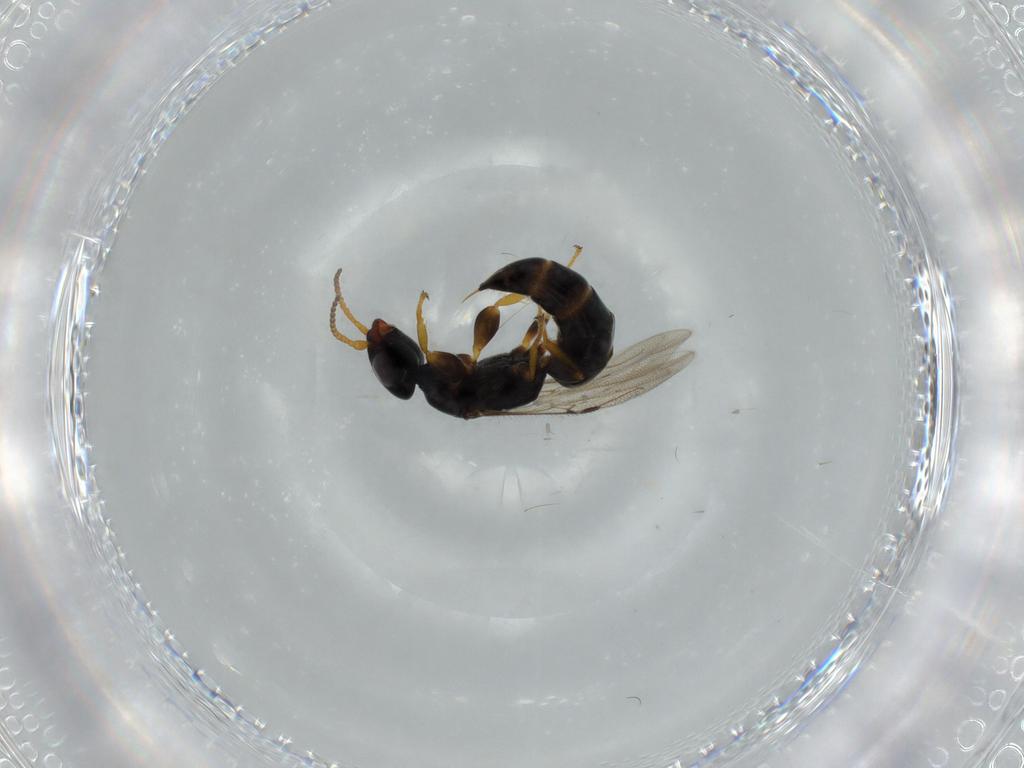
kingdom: Animalia
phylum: Arthropoda
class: Insecta
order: Hymenoptera
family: Bethylidae
